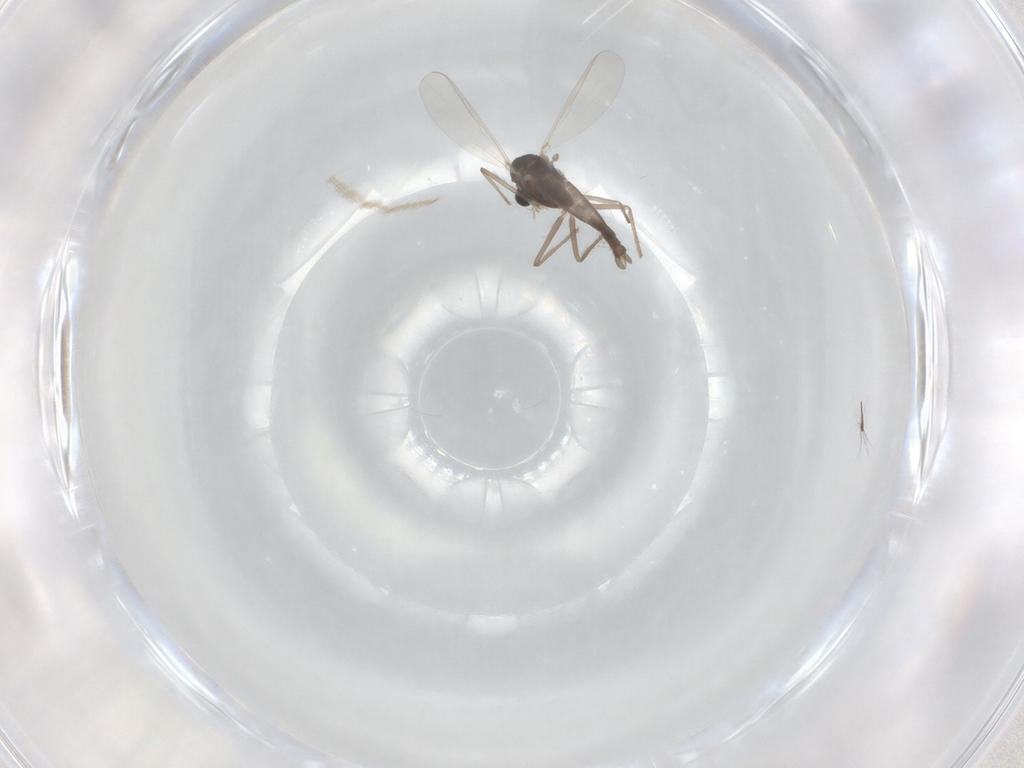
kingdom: Animalia
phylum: Arthropoda
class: Insecta
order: Diptera
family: Chironomidae
